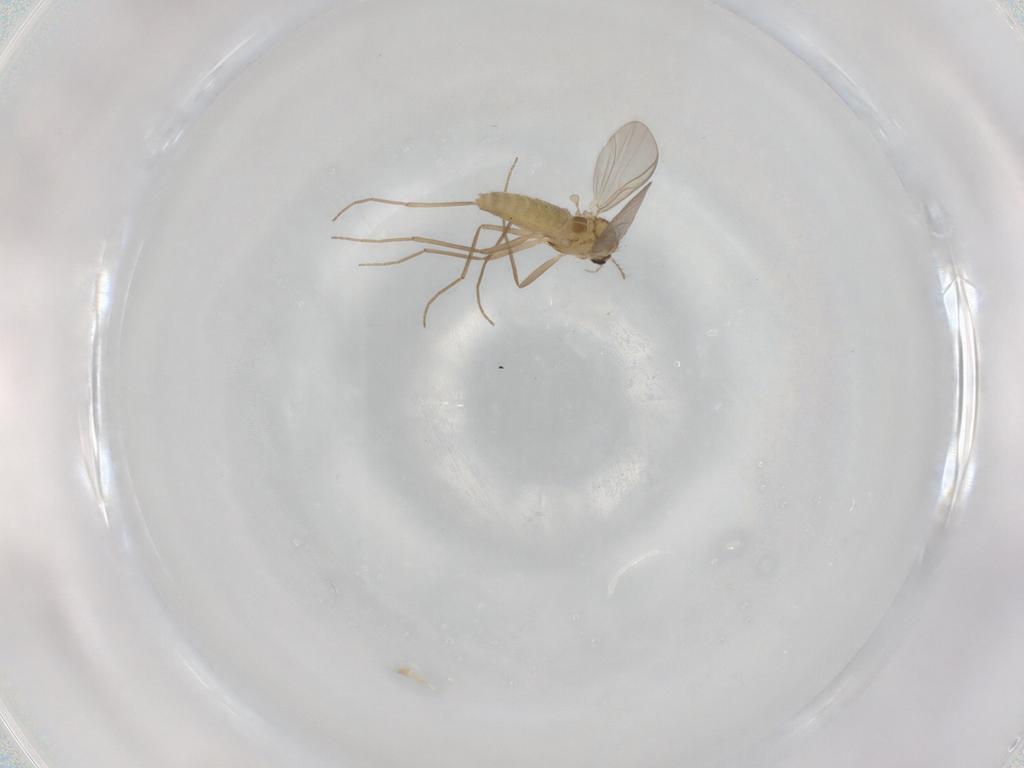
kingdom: Animalia
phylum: Arthropoda
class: Insecta
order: Diptera
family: Chironomidae
